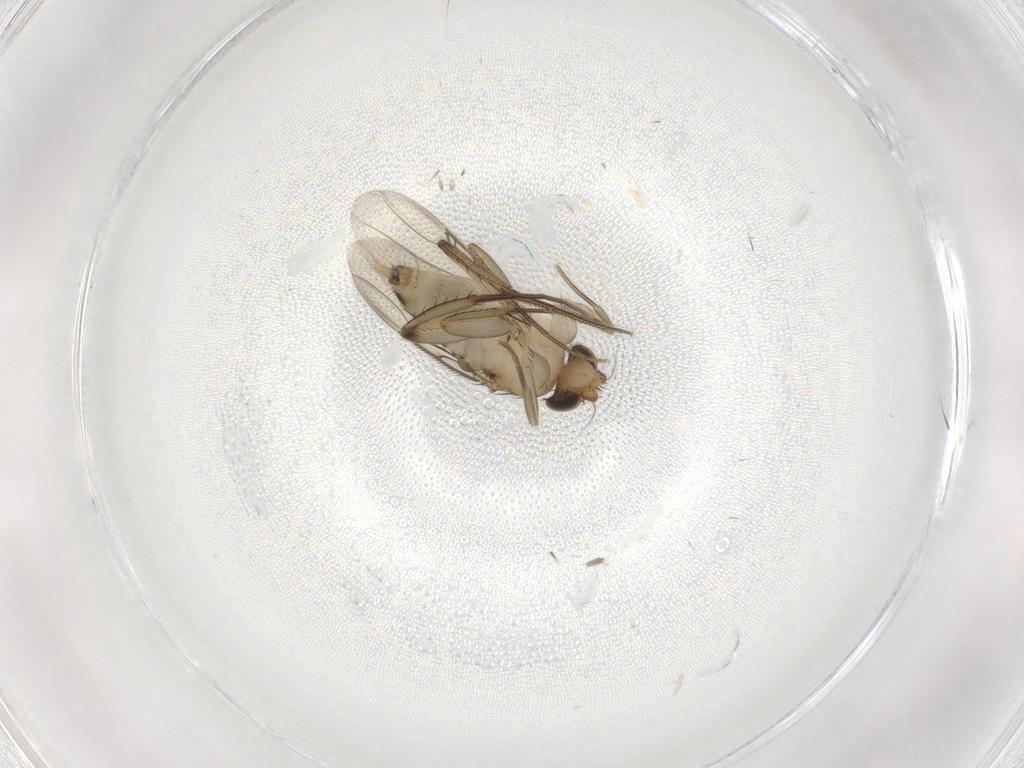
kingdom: Animalia
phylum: Arthropoda
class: Insecta
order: Diptera
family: Phoridae
